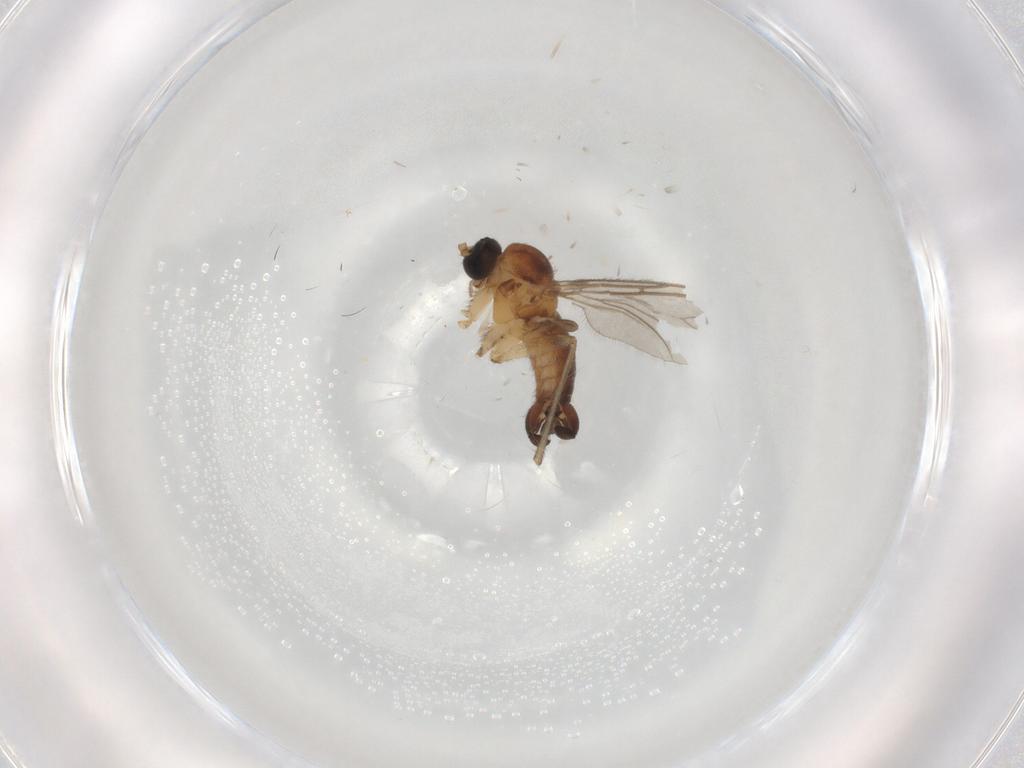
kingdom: Animalia
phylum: Arthropoda
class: Insecta
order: Diptera
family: Sciaridae
